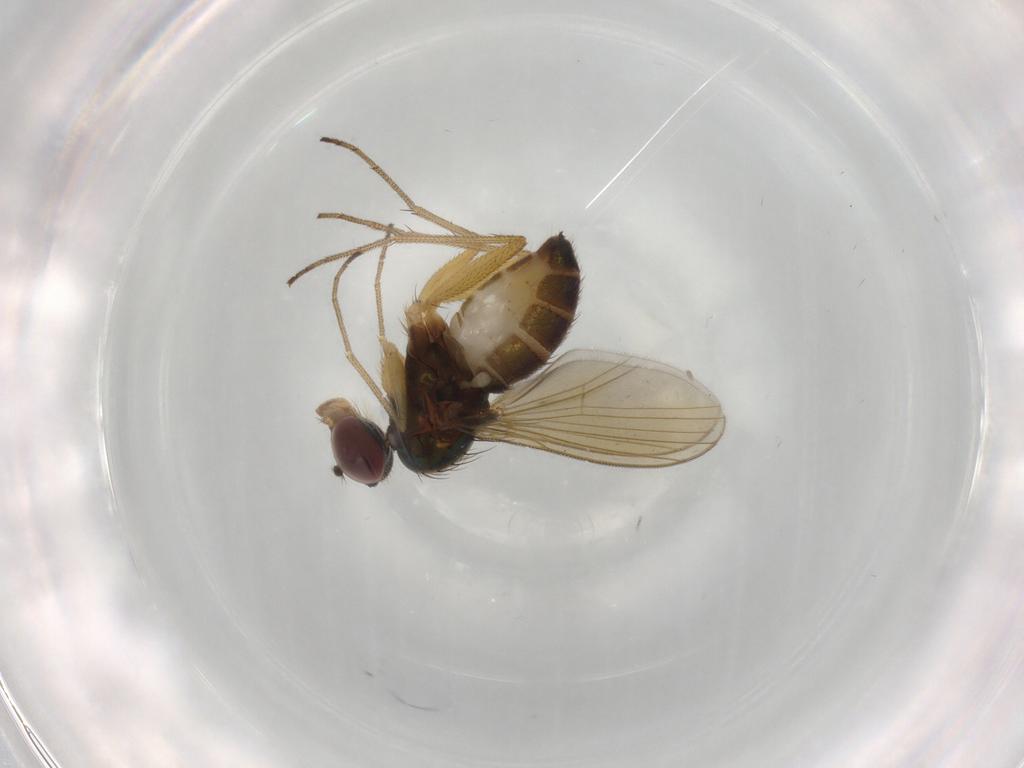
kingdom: Animalia
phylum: Arthropoda
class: Insecta
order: Diptera
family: Dolichopodidae
